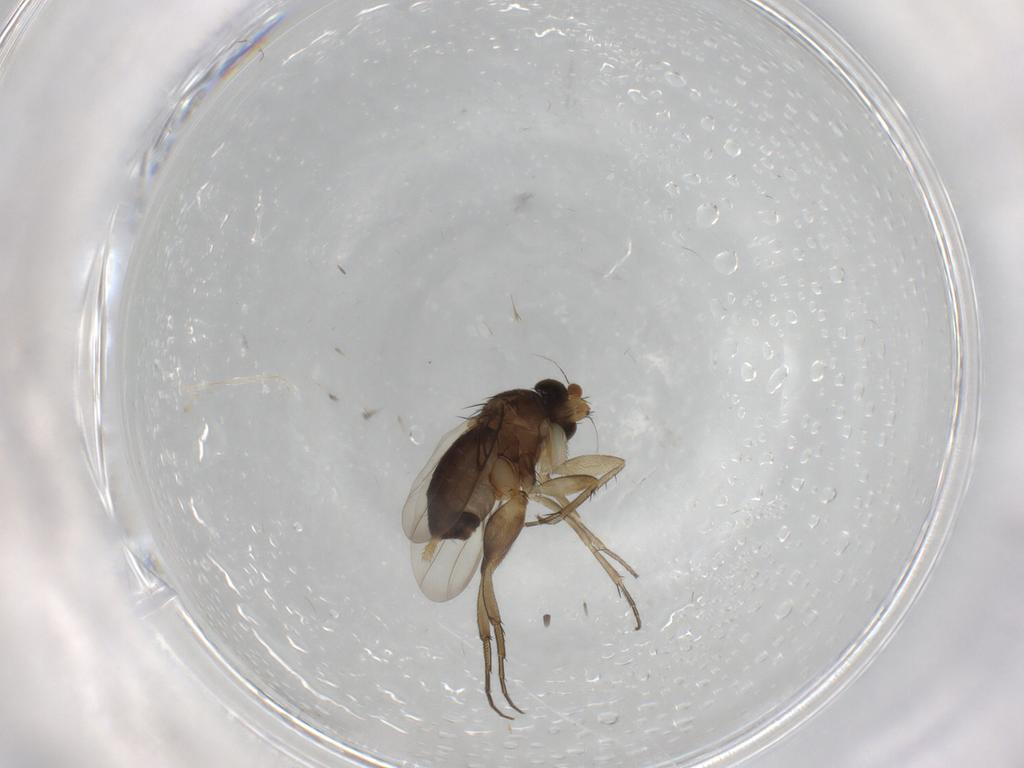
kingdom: Animalia
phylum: Arthropoda
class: Insecta
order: Diptera
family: Phoridae
